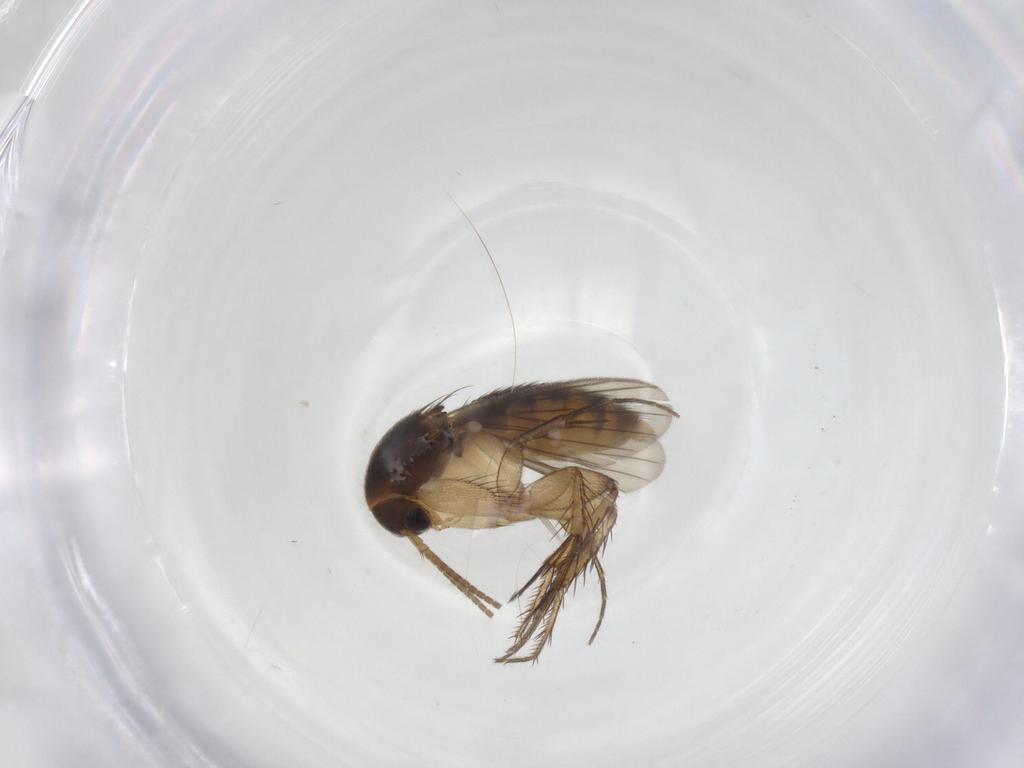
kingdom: Animalia
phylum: Arthropoda
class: Insecta
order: Diptera
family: Mycetophilidae
